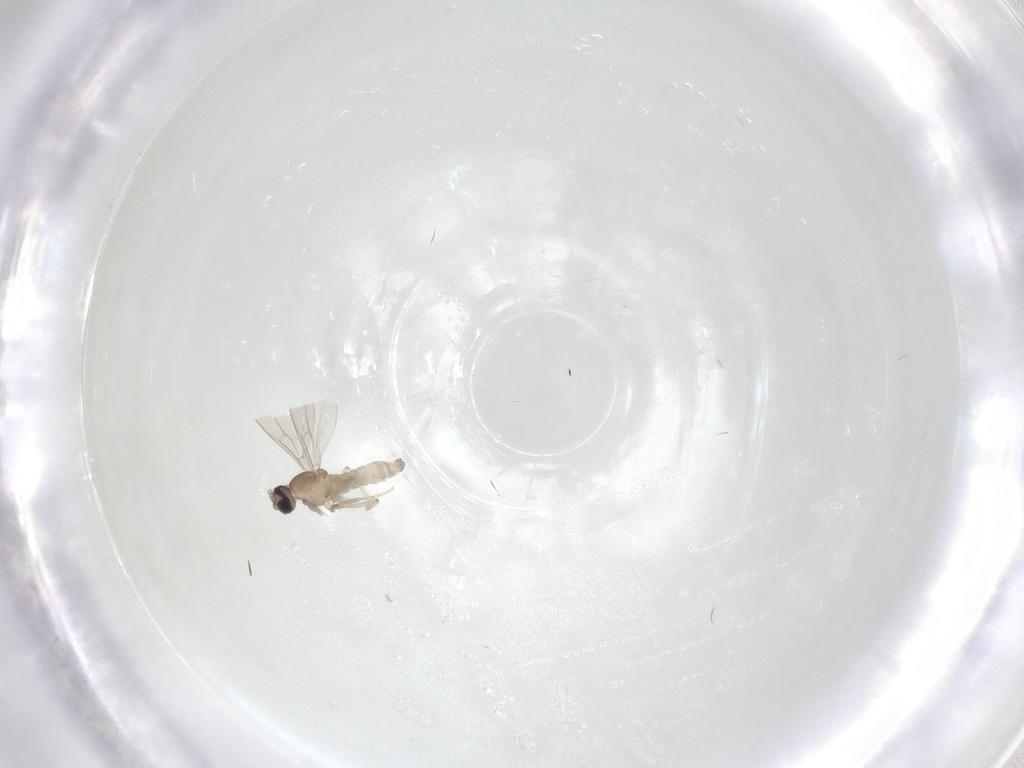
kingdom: Animalia
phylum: Arthropoda
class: Insecta
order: Diptera
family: Cecidomyiidae
